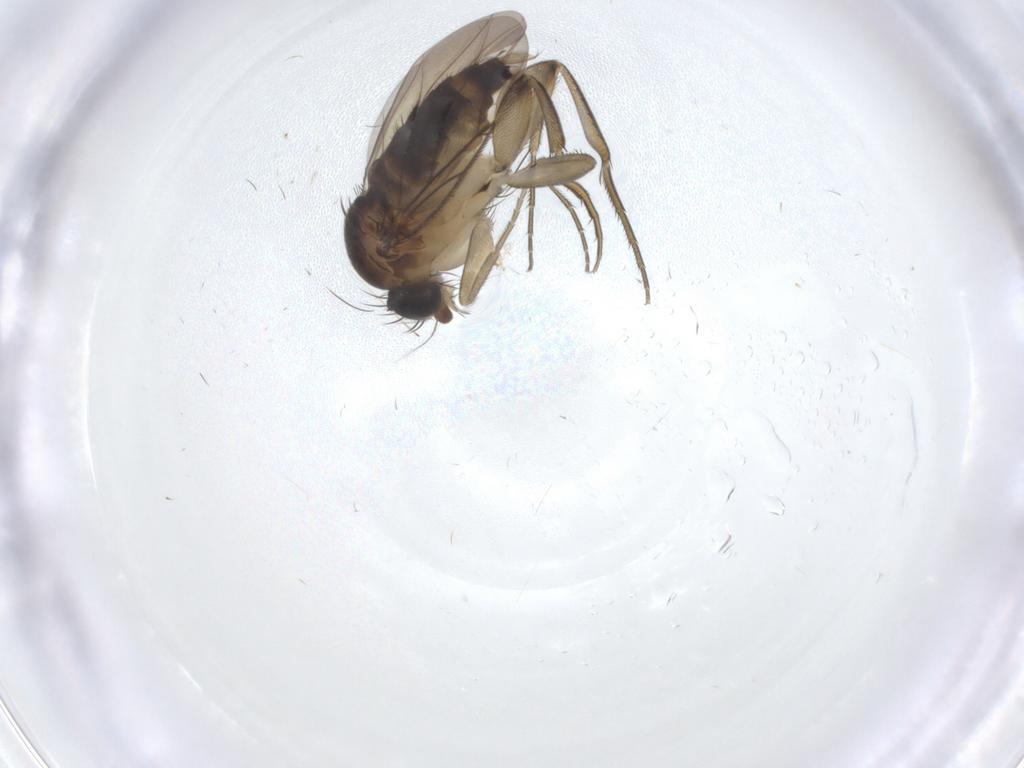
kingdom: Animalia
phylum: Arthropoda
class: Insecta
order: Diptera
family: Phoridae
